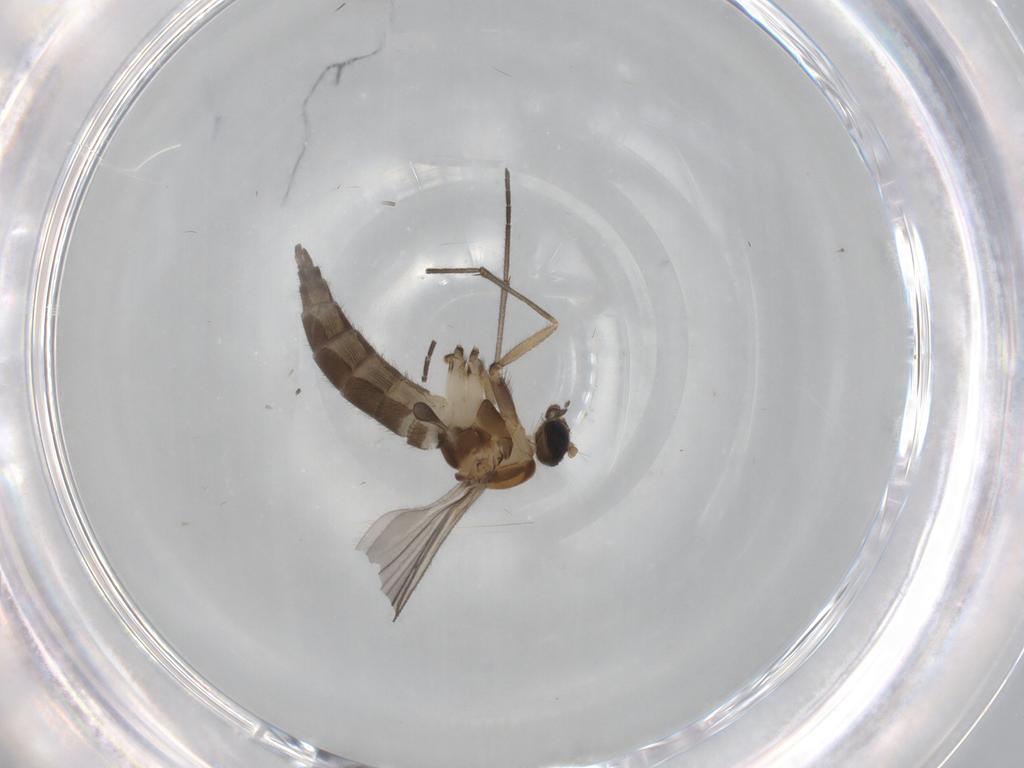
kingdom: Animalia
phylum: Arthropoda
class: Insecta
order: Diptera
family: Sciaridae
